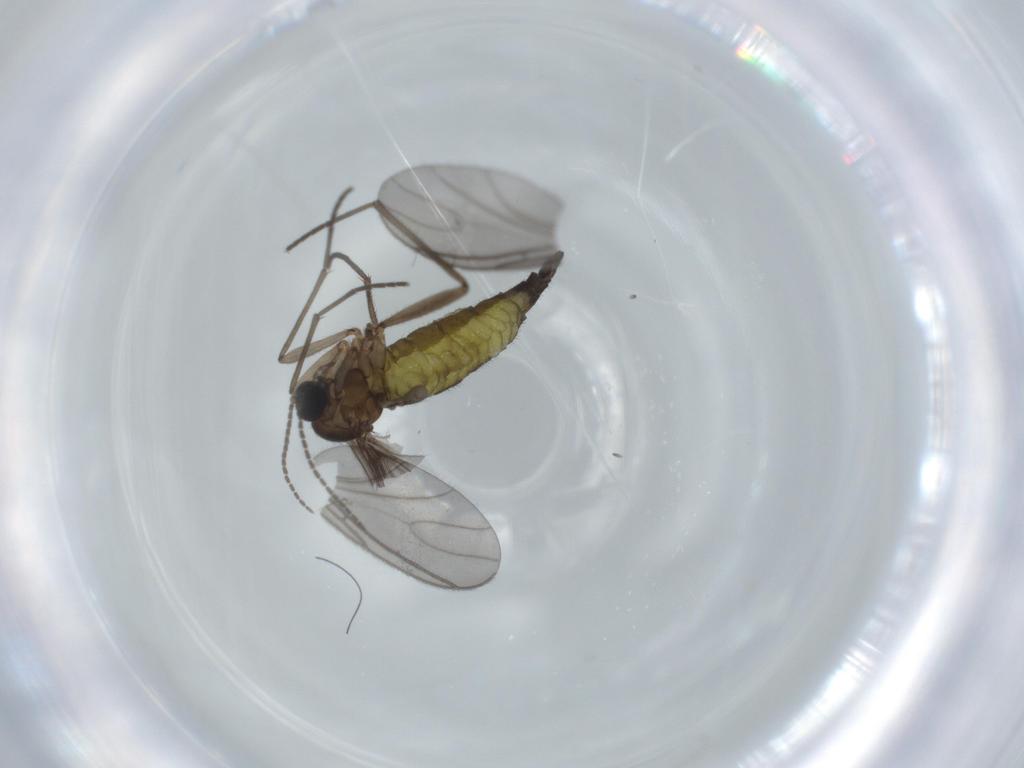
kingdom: Animalia
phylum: Arthropoda
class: Insecta
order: Diptera
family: Sciaridae
